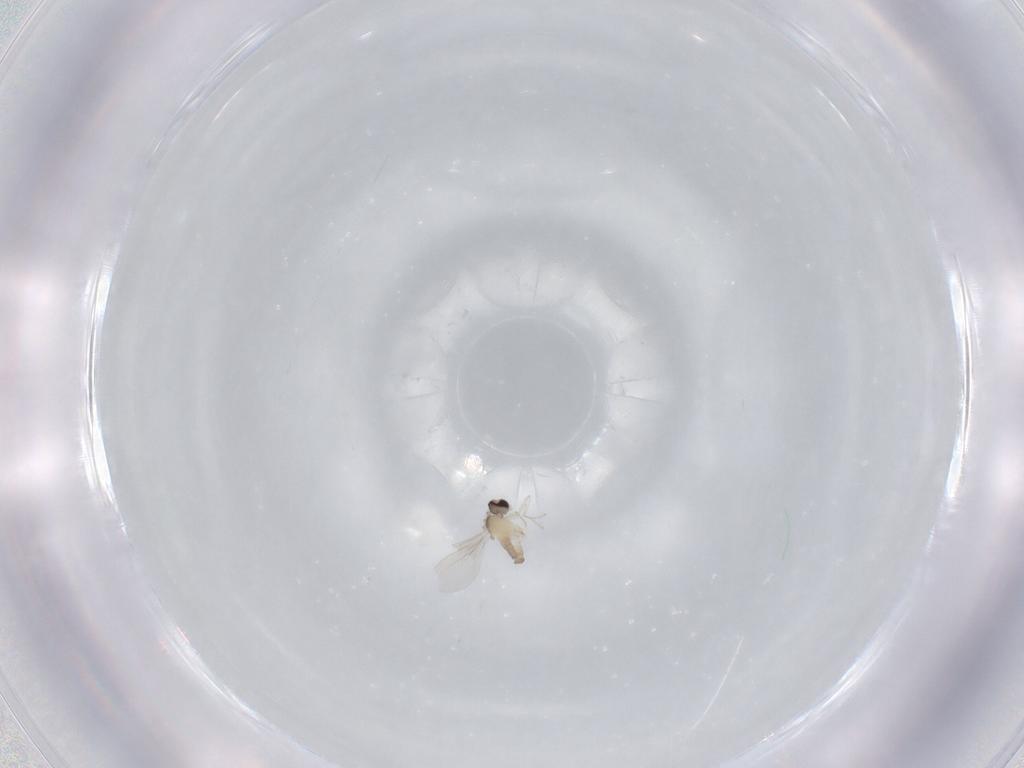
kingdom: Animalia
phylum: Arthropoda
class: Insecta
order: Diptera
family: Cecidomyiidae
